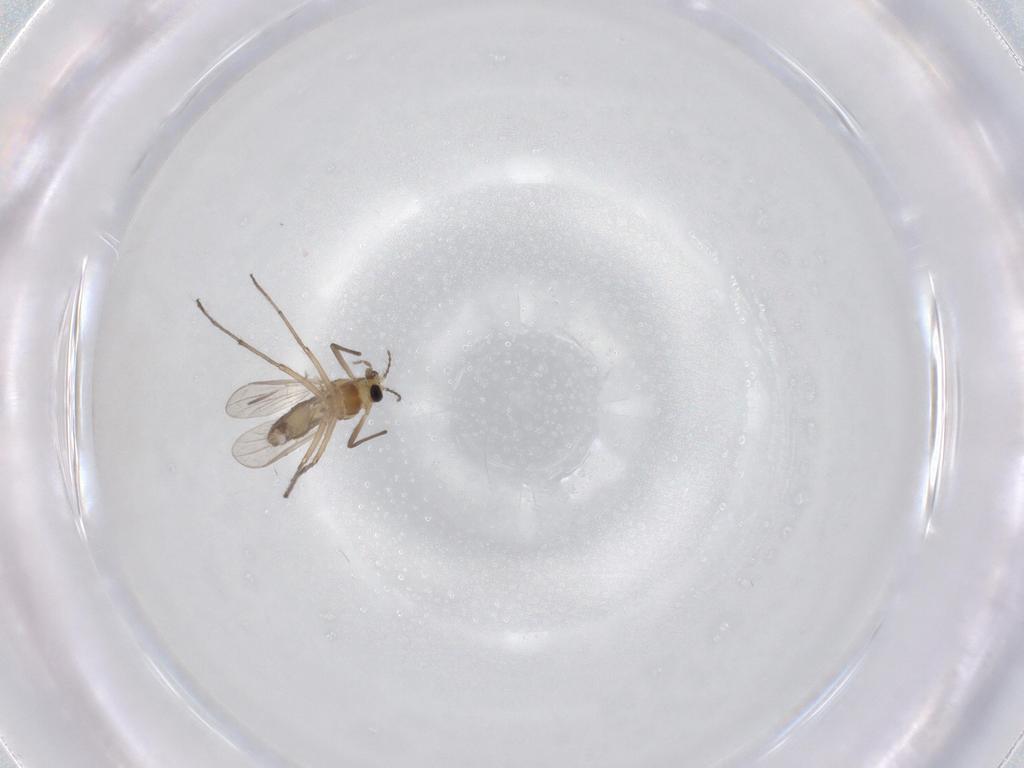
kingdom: Animalia
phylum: Arthropoda
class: Insecta
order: Diptera
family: Chironomidae
